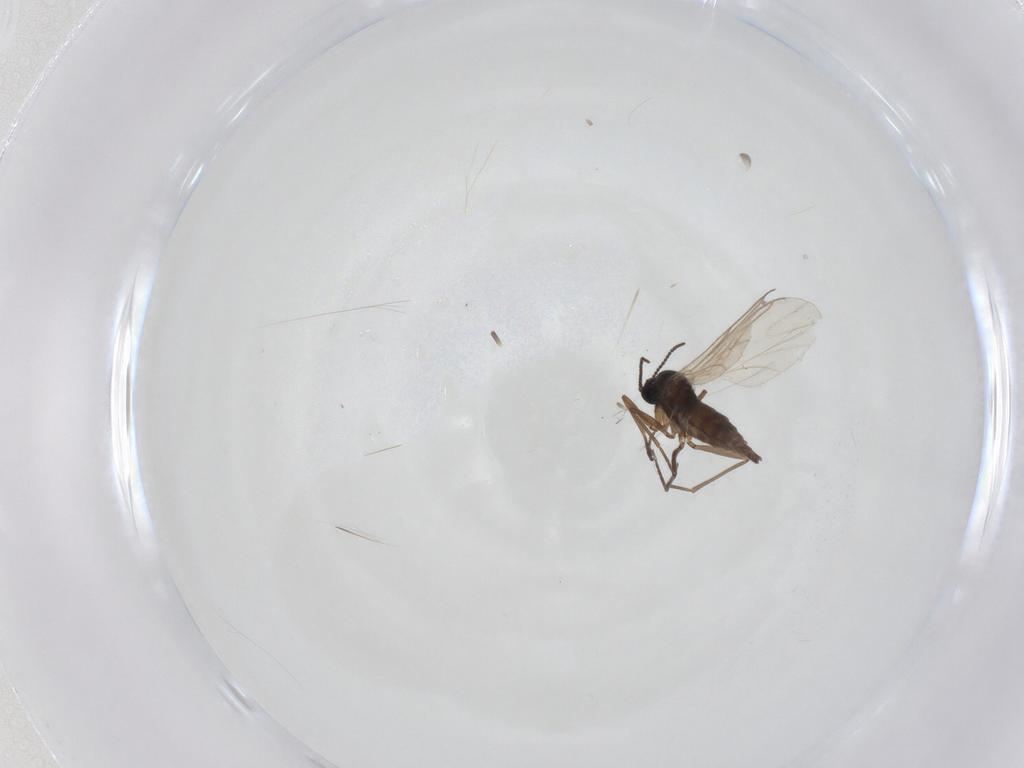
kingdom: Animalia
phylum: Arthropoda
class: Insecta
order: Diptera
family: Sciaridae
